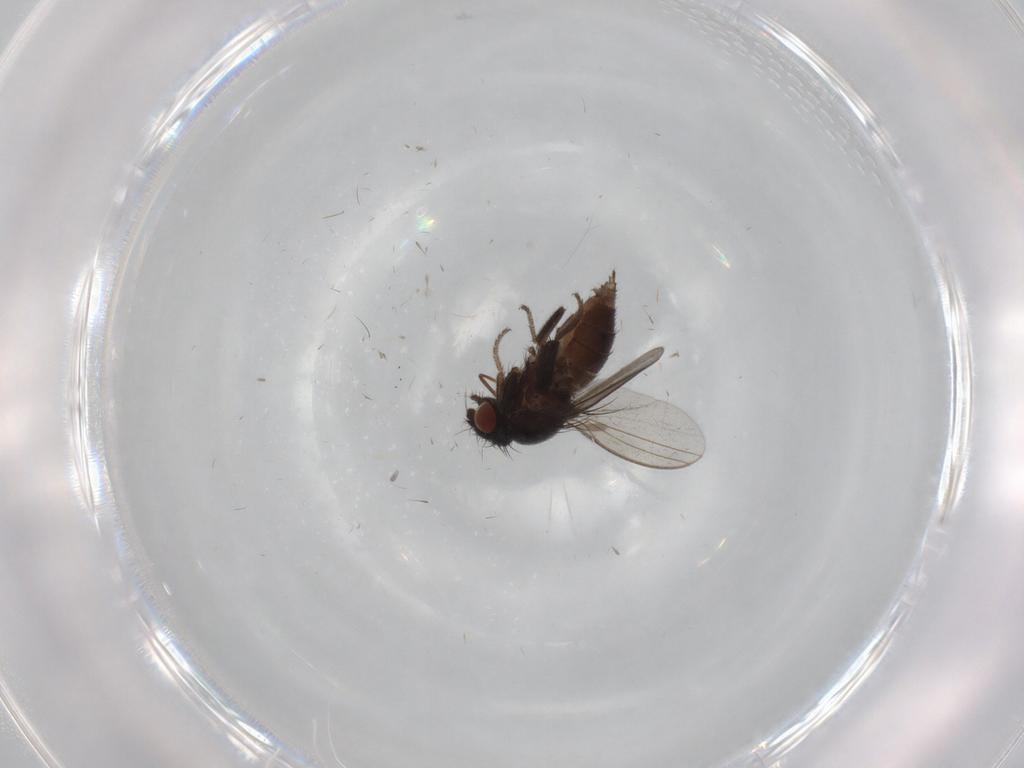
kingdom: Animalia
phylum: Arthropoda
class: Insecta
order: Diptera
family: Milichiidae
